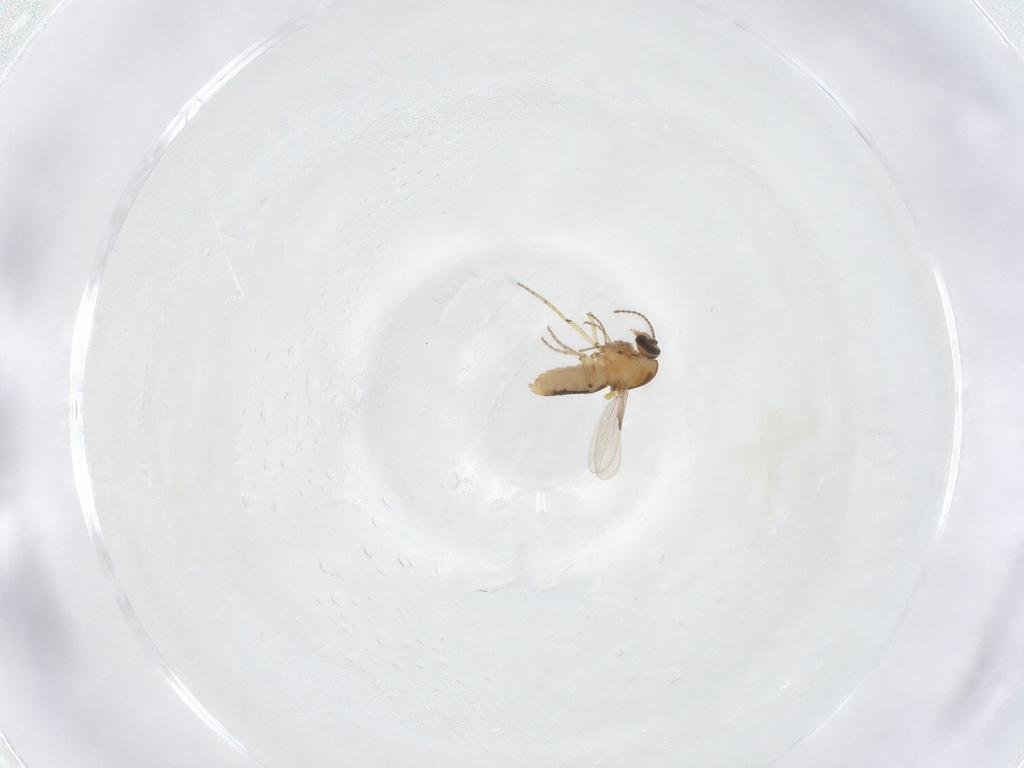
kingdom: Animalia
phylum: Arthropoda
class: Insecta
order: Diptera
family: Ceratopogonidae
